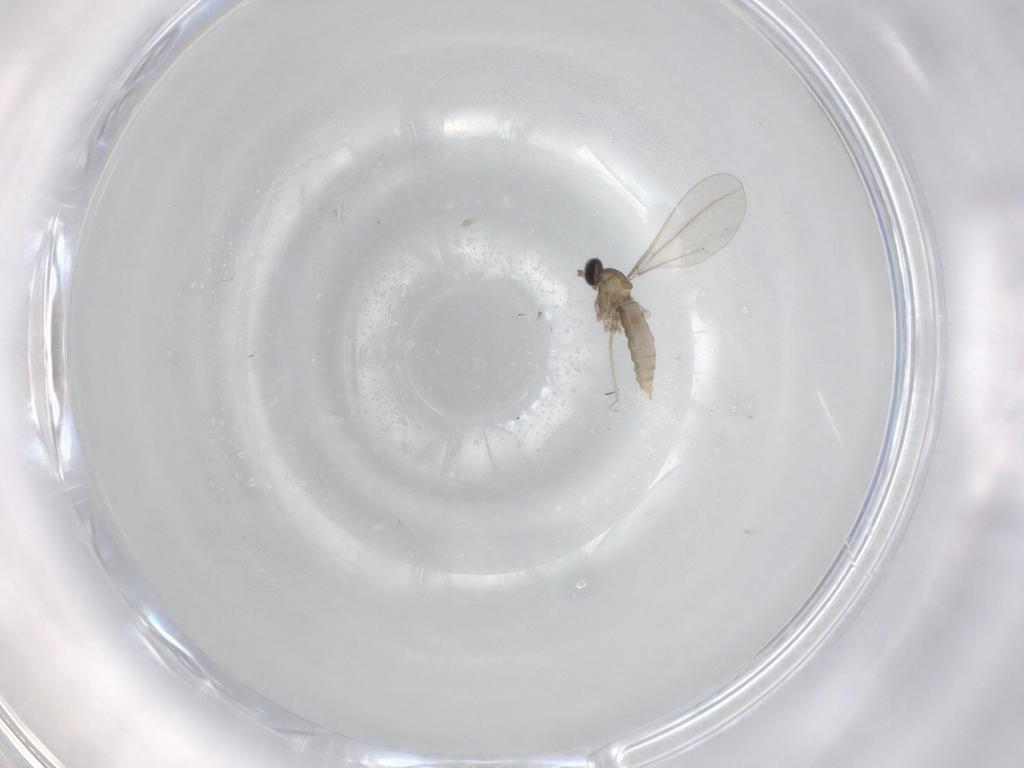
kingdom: Animalia
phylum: Arthropoda
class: Insecta
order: Diptera
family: Cecidomyiidae
